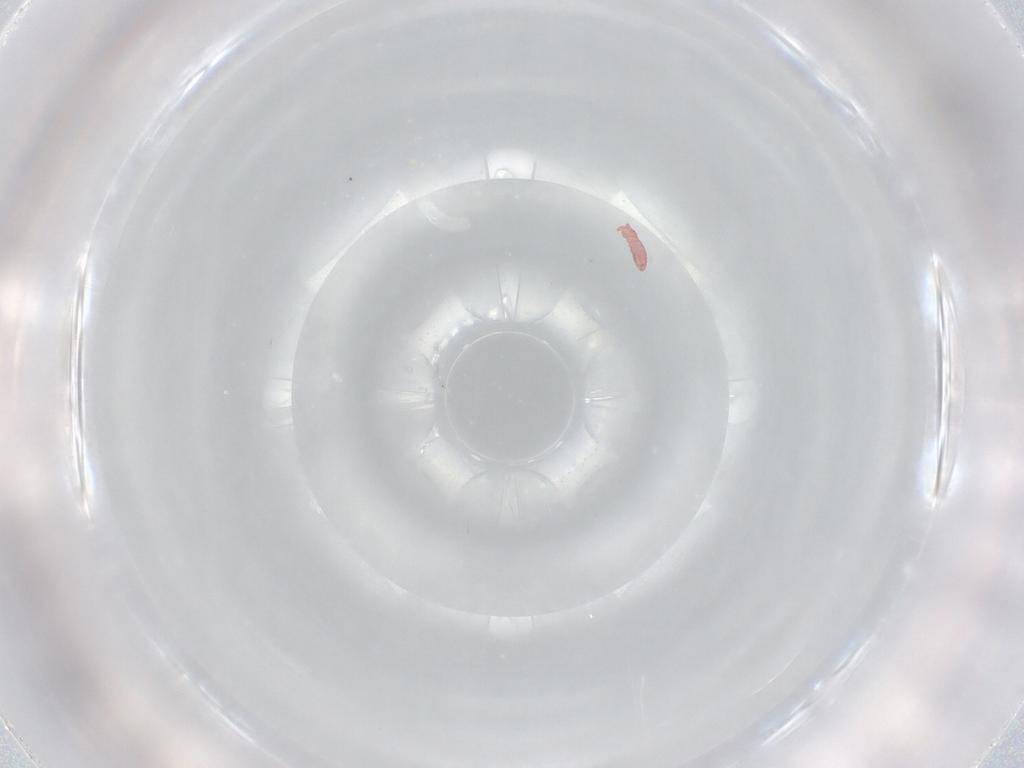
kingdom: Animalia
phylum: Arthropoda
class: Collembola
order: Poduromorpha
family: Hypogastruridae
